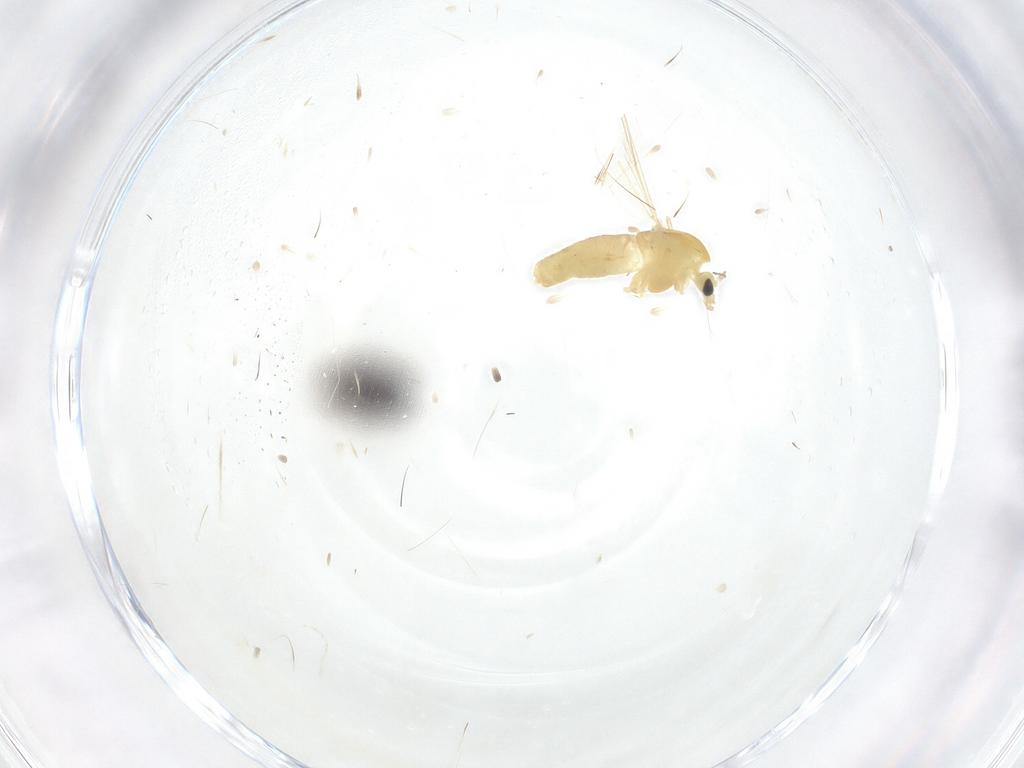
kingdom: Animalia
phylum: Arthropoda
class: Insecta
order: Diptera
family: Chironomidae
